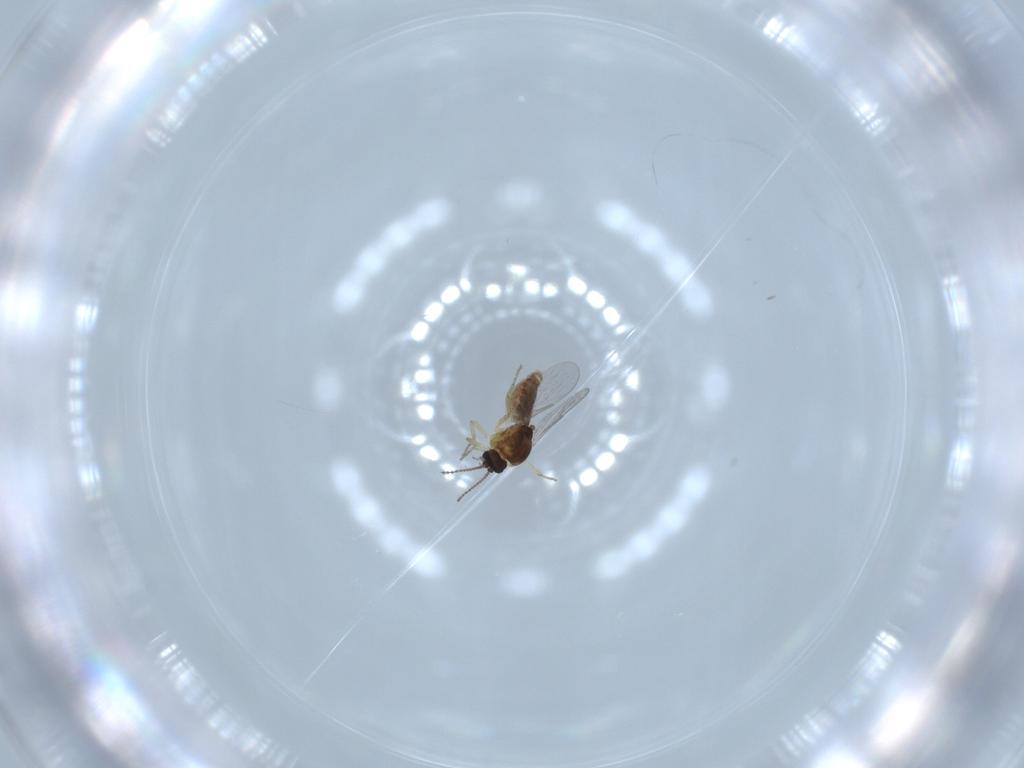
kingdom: Animalia
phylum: Arthropoda
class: Insecta
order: Diptera
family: Ceratopogonidae
